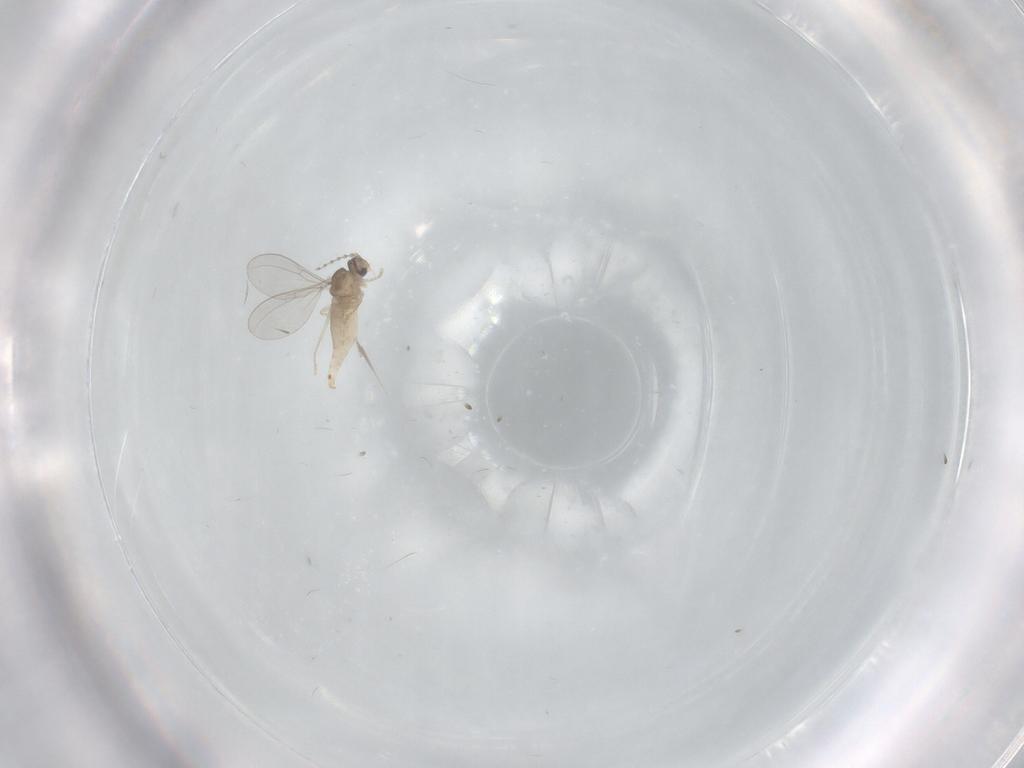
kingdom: Animalia
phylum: Arthropoda
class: Insecta
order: Diptera
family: Cecidomyiidae
